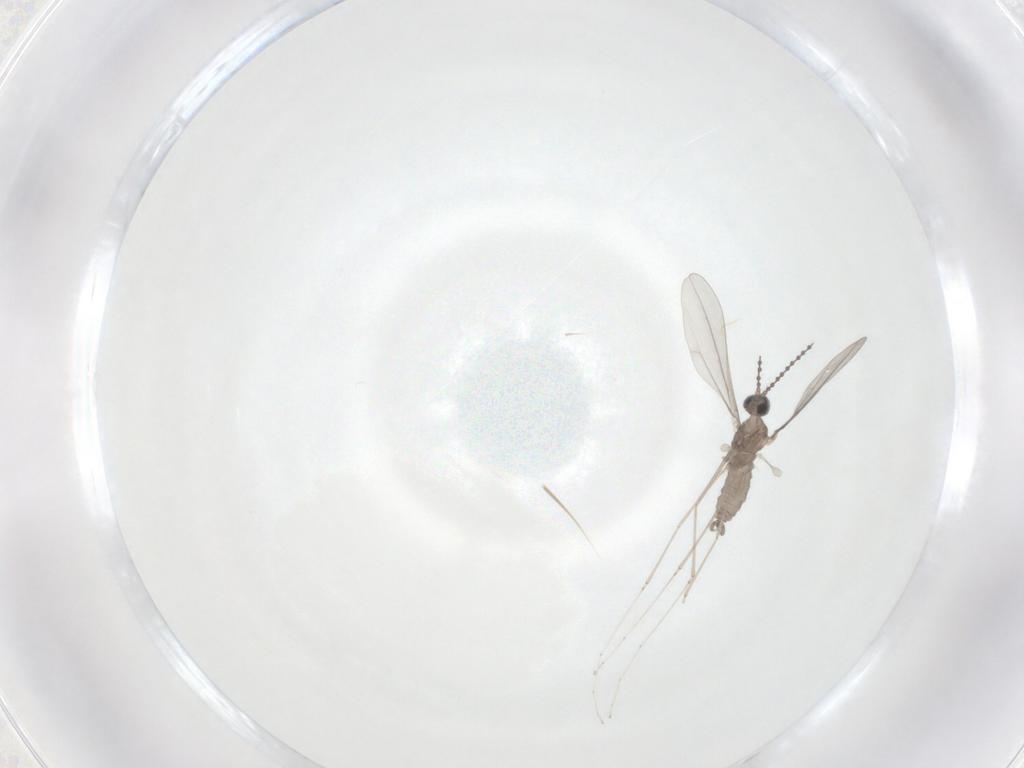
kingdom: Animalia
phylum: Arthropoda
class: Insecta
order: Diptera
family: Cecidomyiidae
